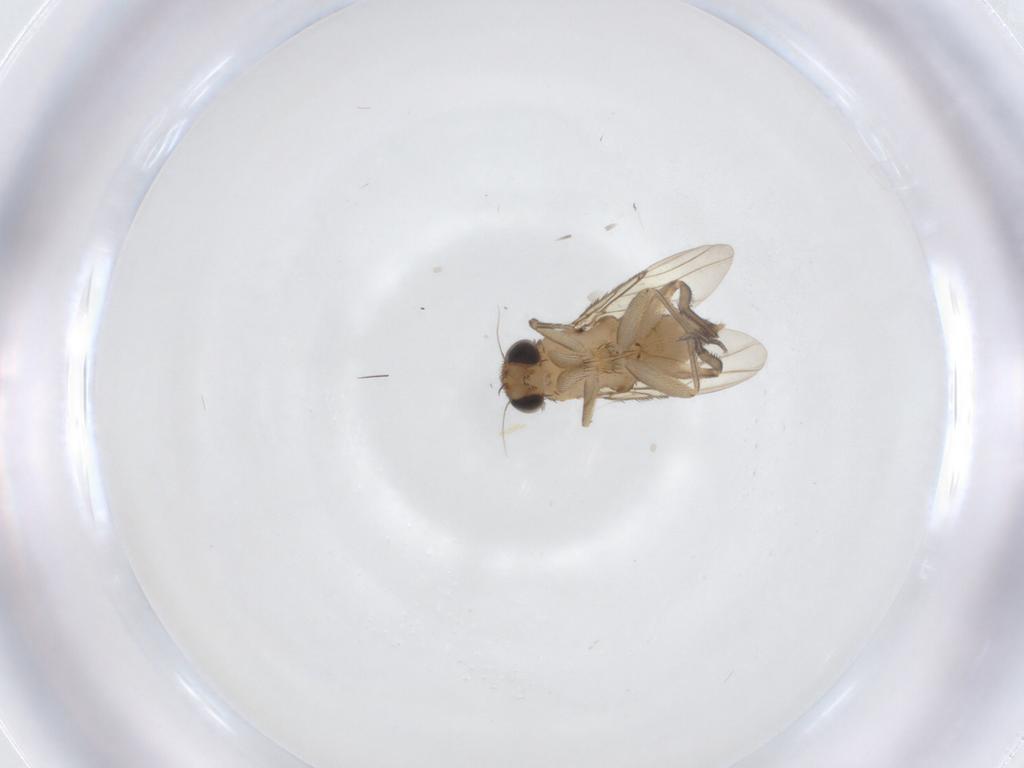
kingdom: Animalia
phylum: Arthropoda
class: Insecta
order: Diptera
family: Phoridae
